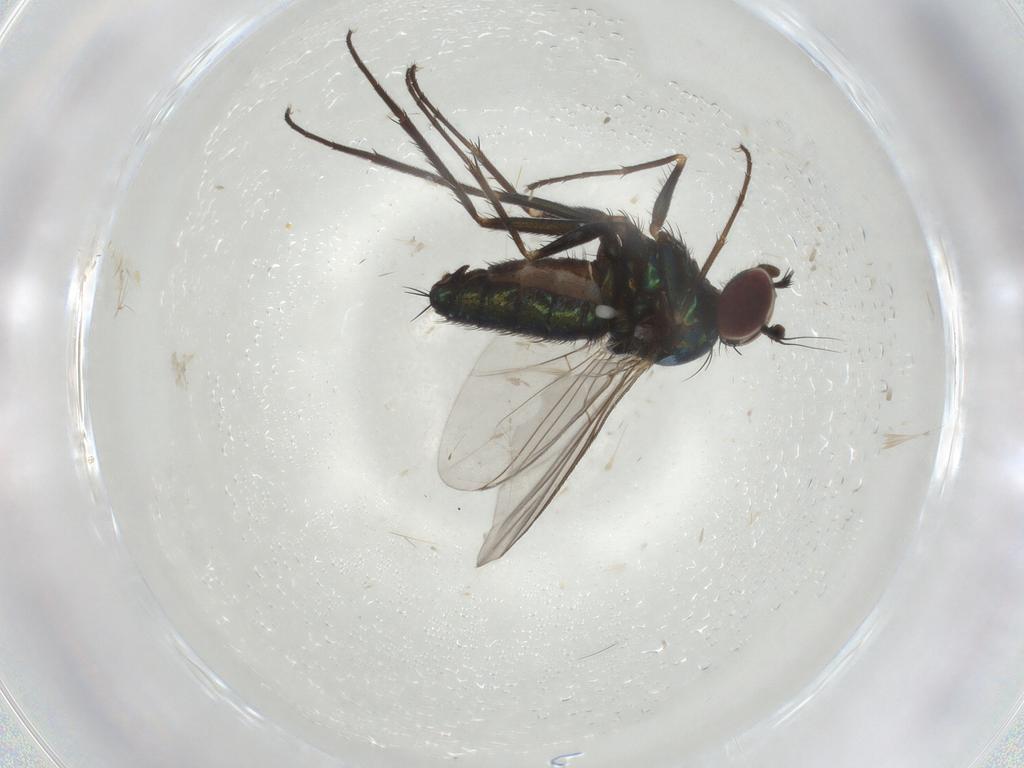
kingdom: Animalia
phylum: Arthropoda
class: Insecta
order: Diptera
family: Dolichopodidae
